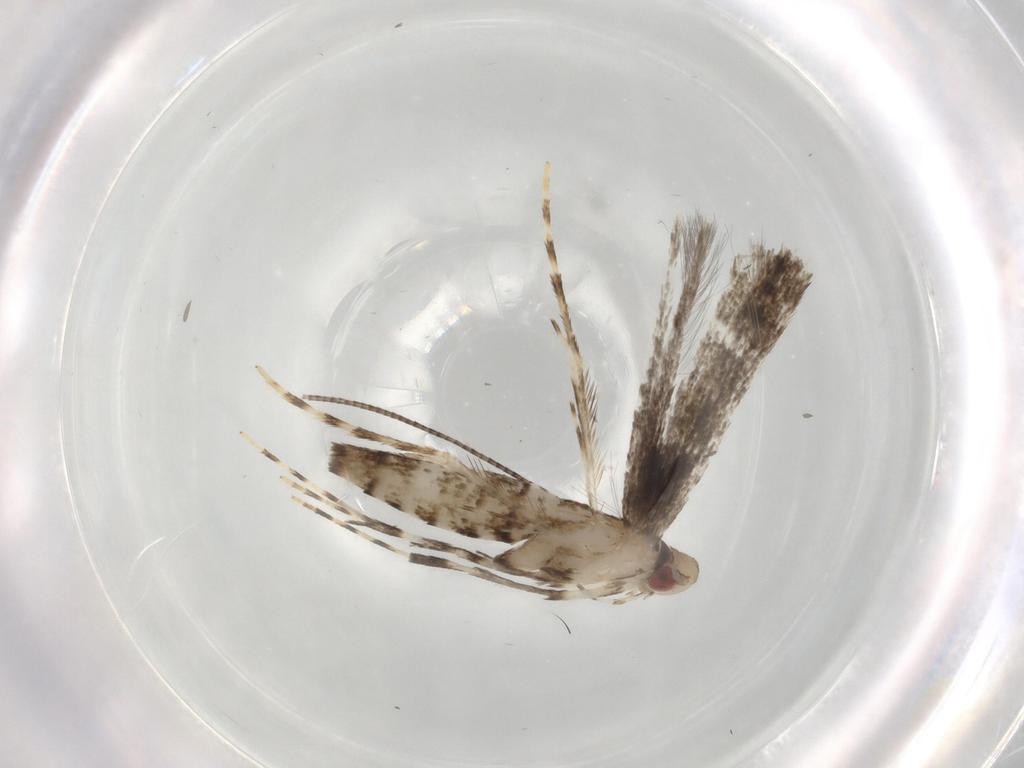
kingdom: Animalia
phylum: Arthropoda
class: Insecta
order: Lepidoptera
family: Gracillariidae
